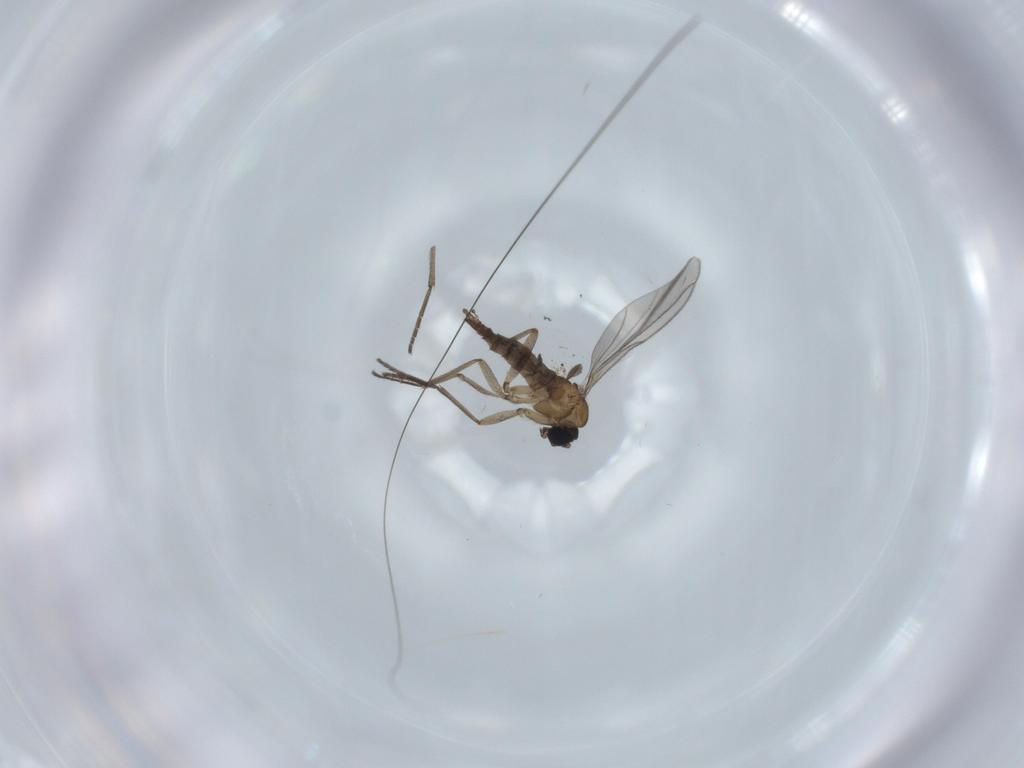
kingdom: Animalia
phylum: Arthropoda
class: Insecta
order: Diptera
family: Sciaridae
